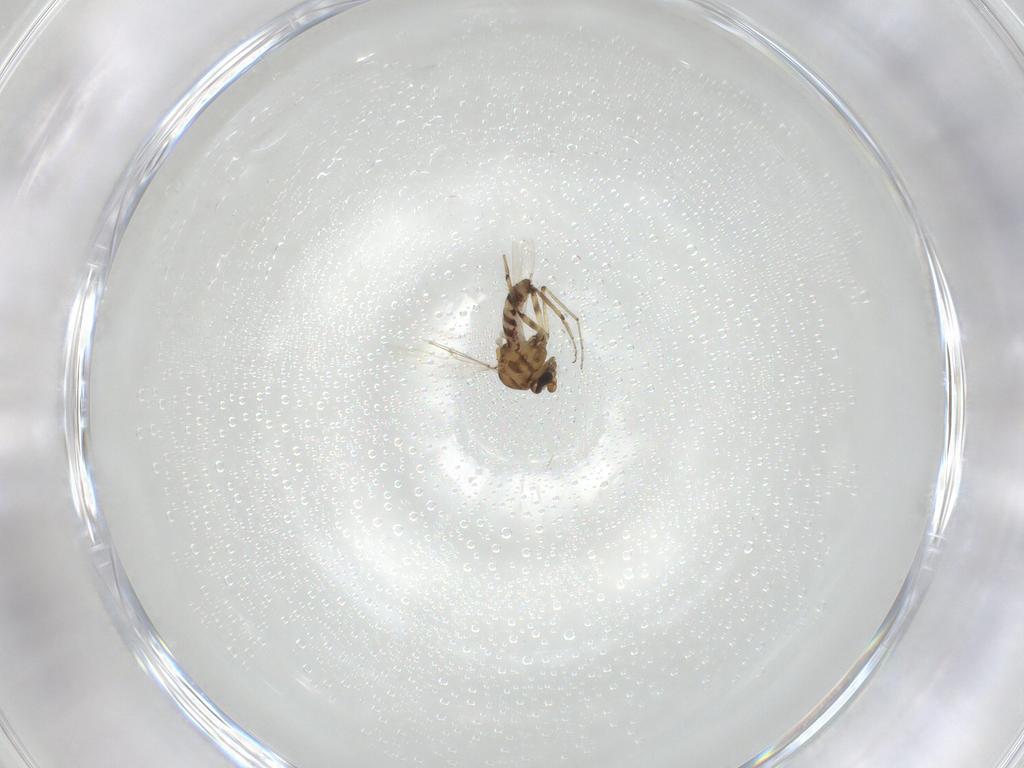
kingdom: Animalia
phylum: Arthropoda
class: Insecta
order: Diptera
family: Ceratopogonidae
